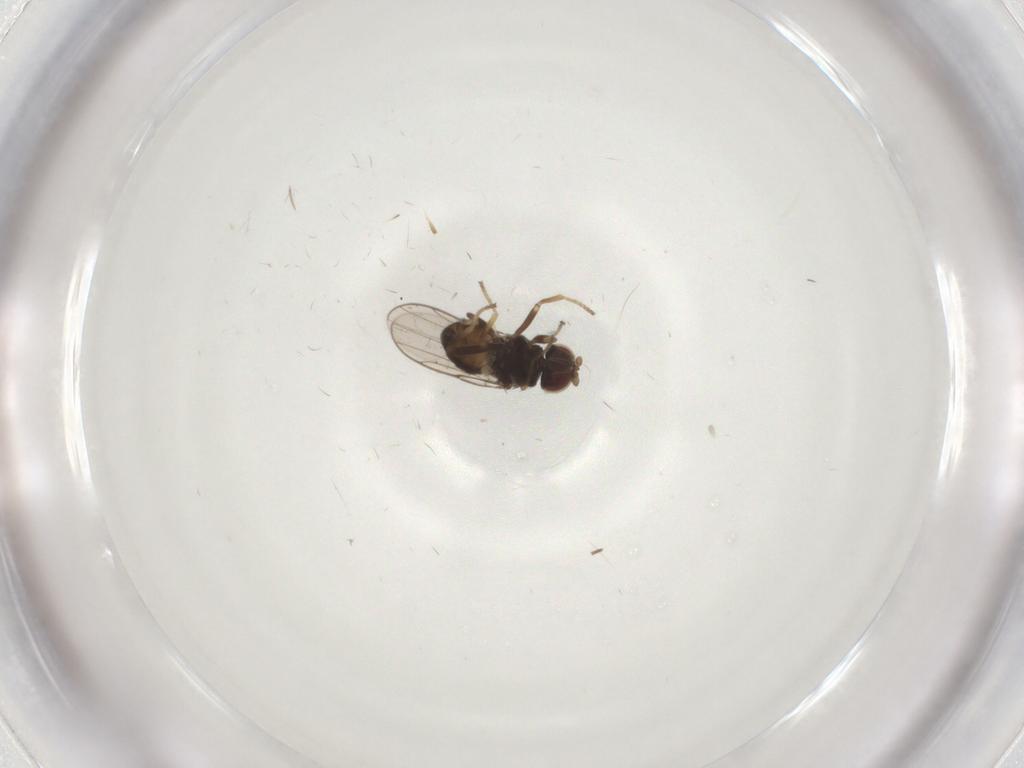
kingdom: Animalia
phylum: Arthropoda
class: Insecta
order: Diptera
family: Chloropidae
